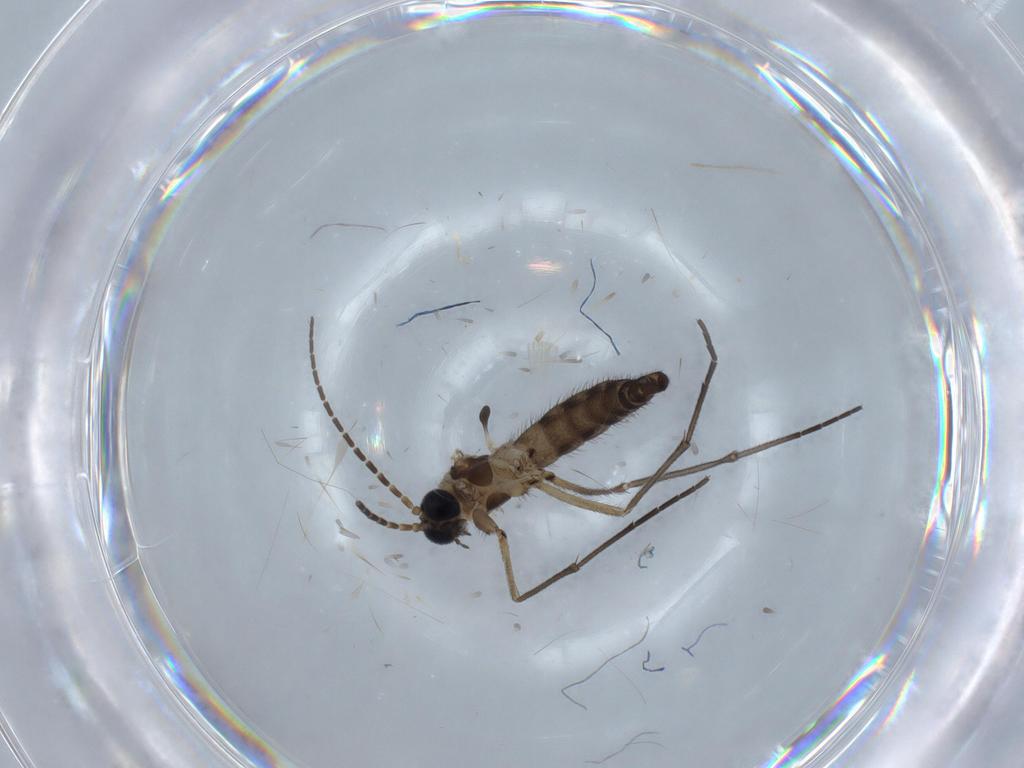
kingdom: Animalia
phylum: Arthropoda
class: Insecta
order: Diptera
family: Sciaridae
